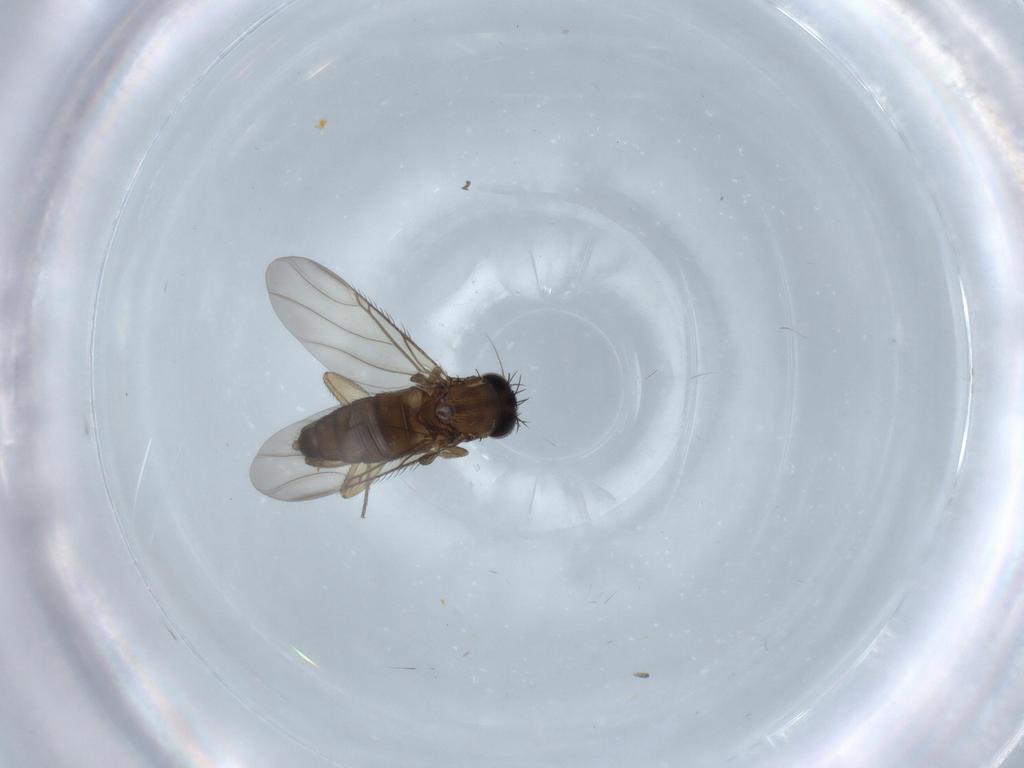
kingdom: Animalia
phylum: Arthropoda
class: Insecta
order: Diptera
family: Phoridae
